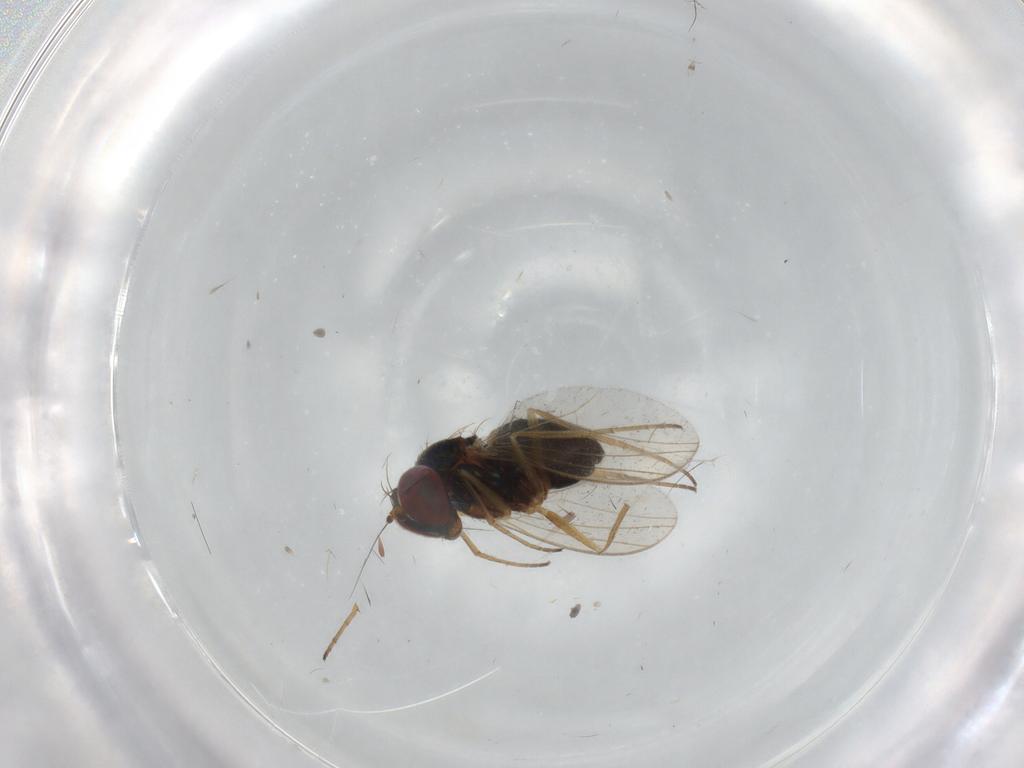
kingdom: Animalia
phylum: Arthropoda
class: Insecta
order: Diptera
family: Dolichopodidae
